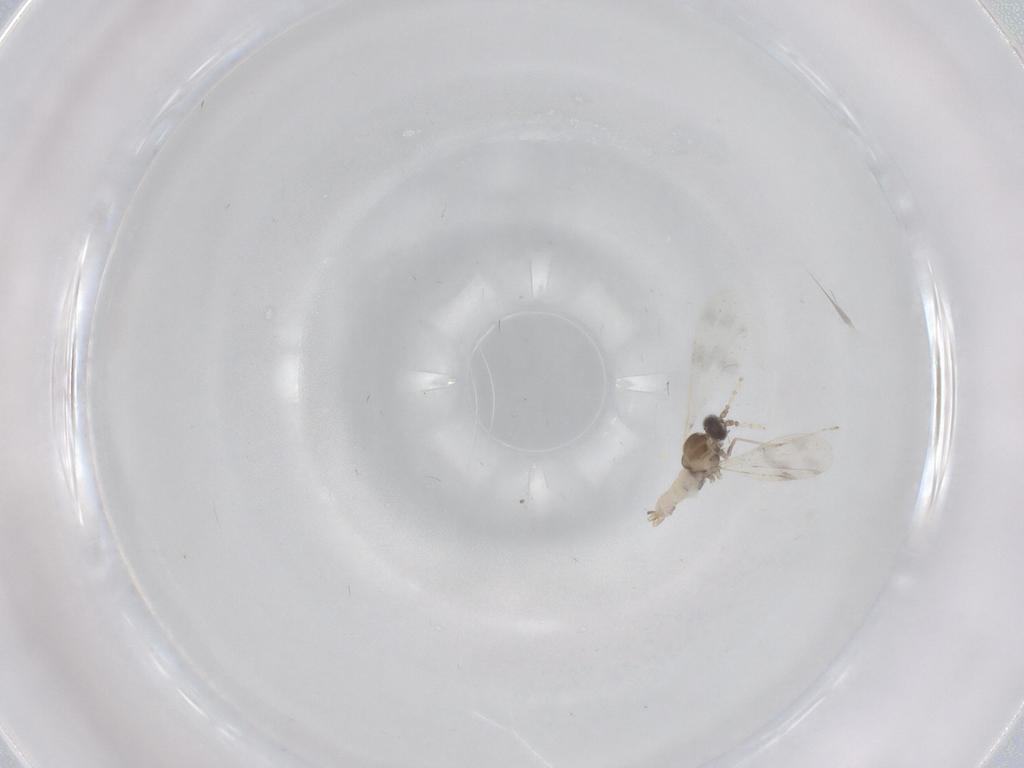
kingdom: Animalia
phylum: Arthropoda
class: Insecta
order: Diptera
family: Cecidomyiidae
